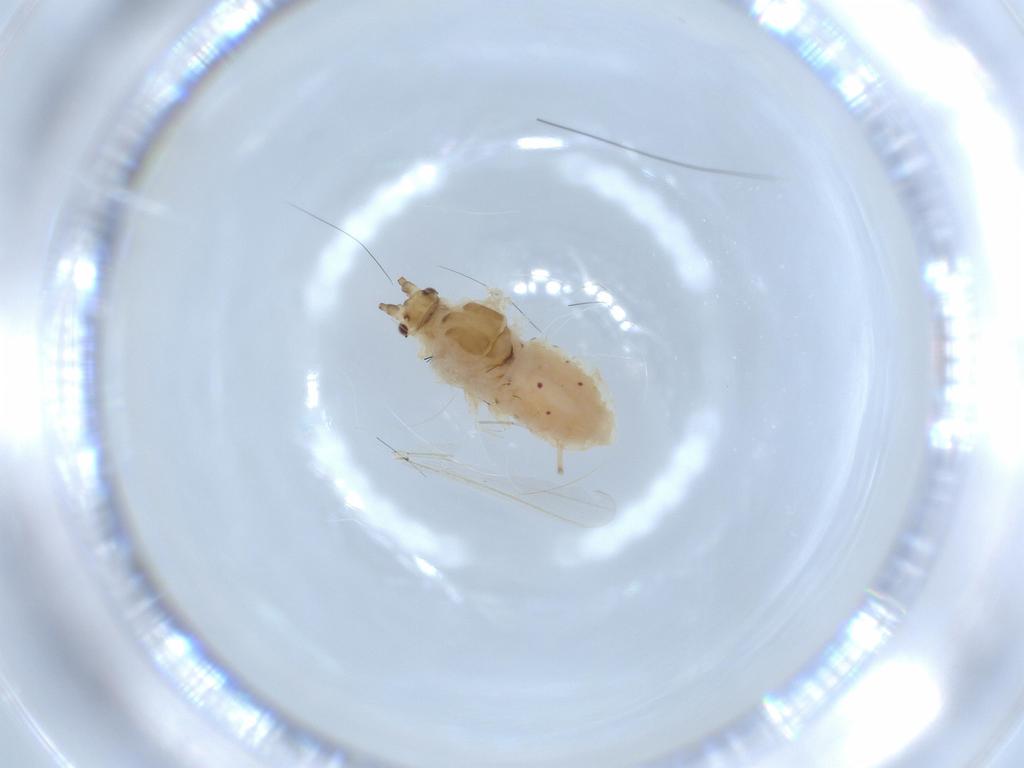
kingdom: Animalia
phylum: Arthropoda
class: Insecta
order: Hemiptera
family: Aphididae
